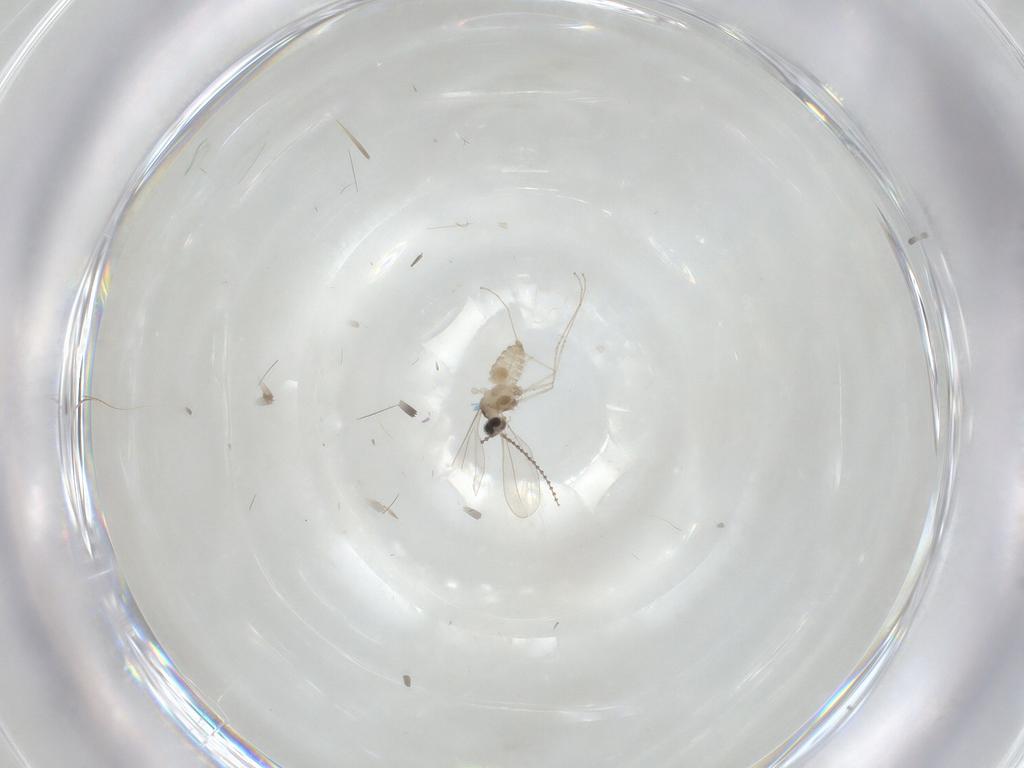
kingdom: Animalia
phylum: Arthropoda
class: Insecta
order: Diptera
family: Cecidomyiidae
